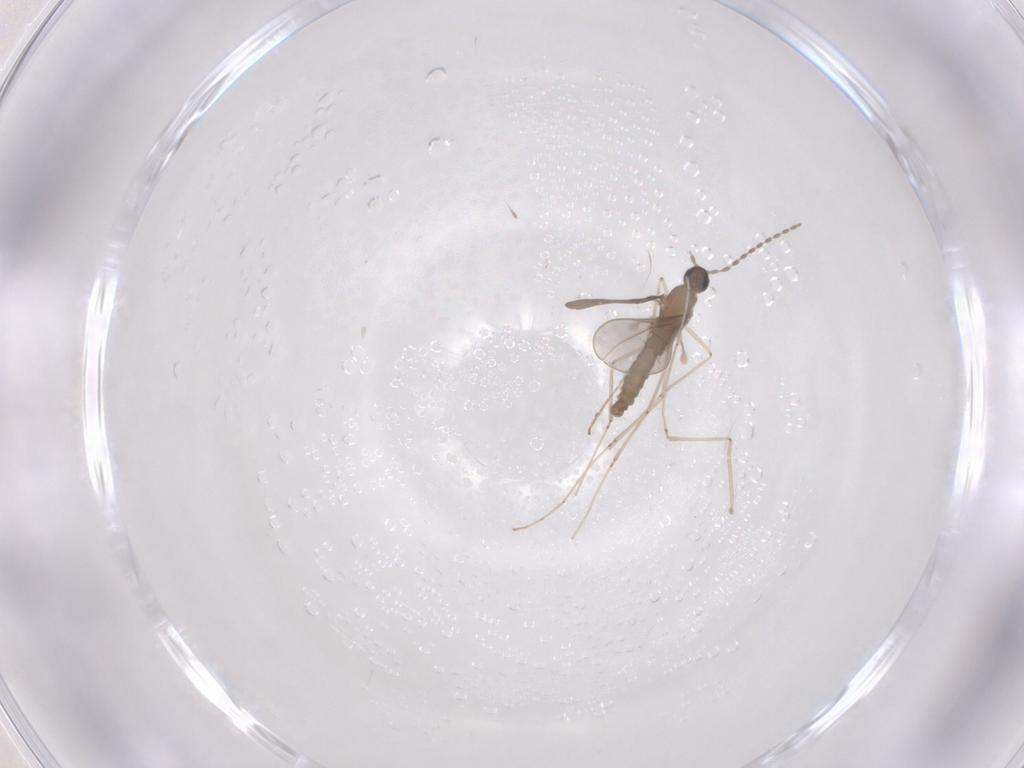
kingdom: Animalia
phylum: Arthropoda
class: Insecta
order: Diptera
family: Cecidomyiidae
